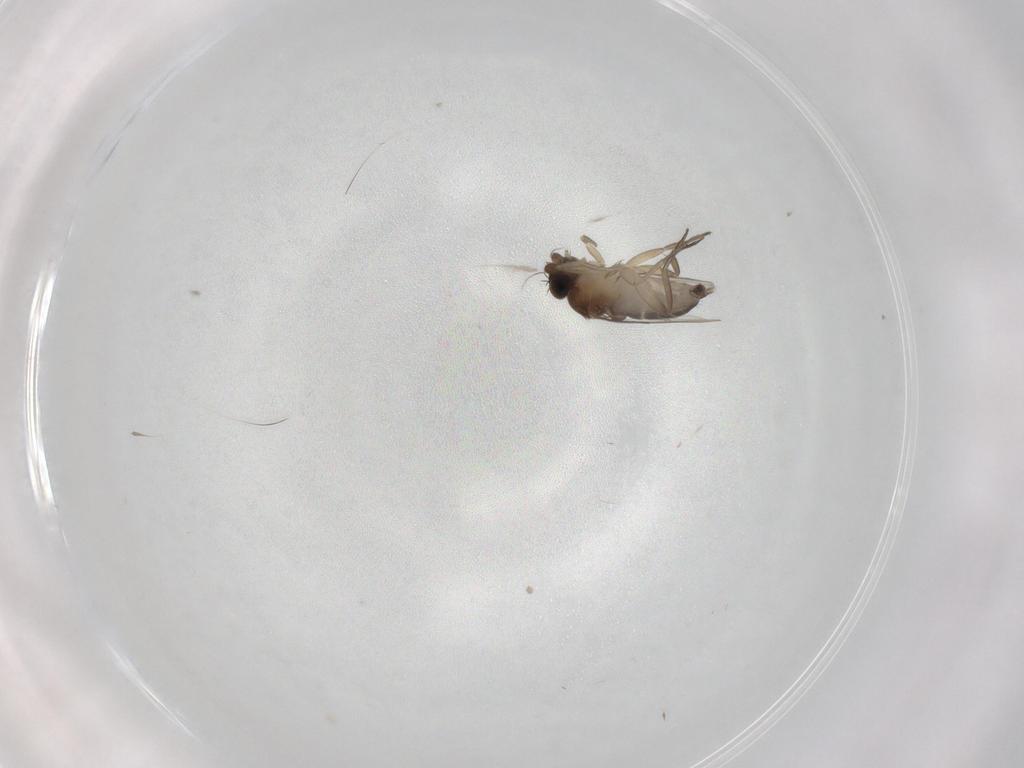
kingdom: Animalia
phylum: Arthropoda
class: Insecta
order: Diptera
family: Phoridae
